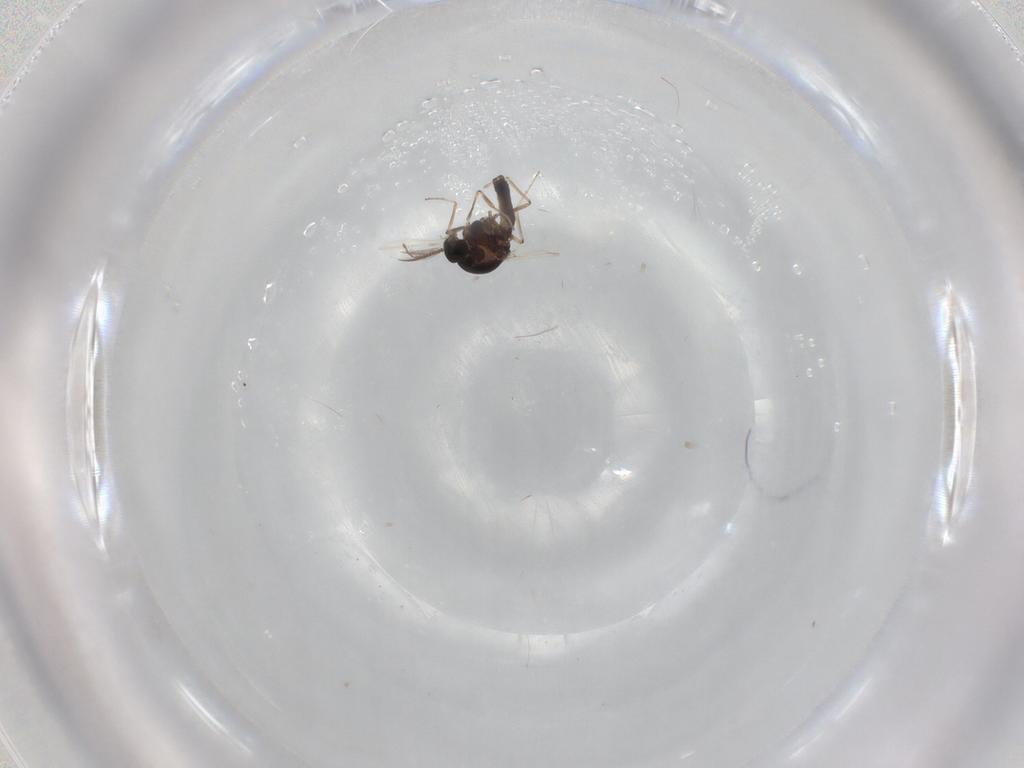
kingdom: Animalia
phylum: Arthropoda
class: Insecta
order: Diptera
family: Ceratopogonidae
